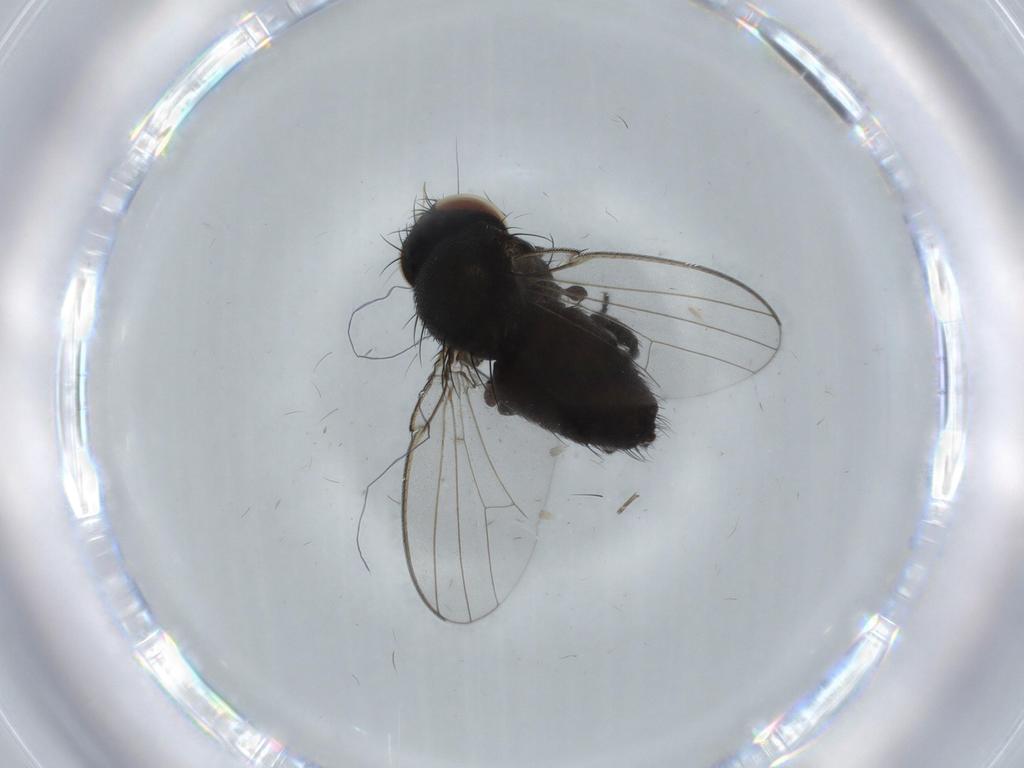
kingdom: Animalia
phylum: Arthropoda
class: Insecta
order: Diptera
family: Milichiidae
